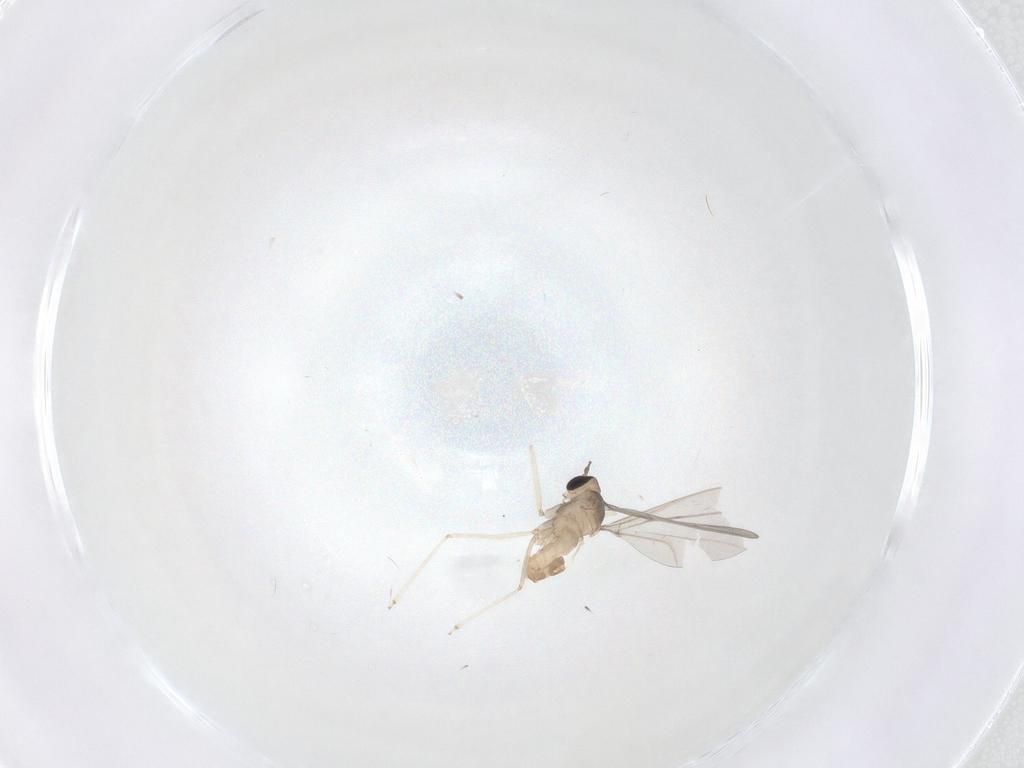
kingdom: Animalia
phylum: Arthropoda
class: Insecta
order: Diptera
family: Cecidomyiidae
